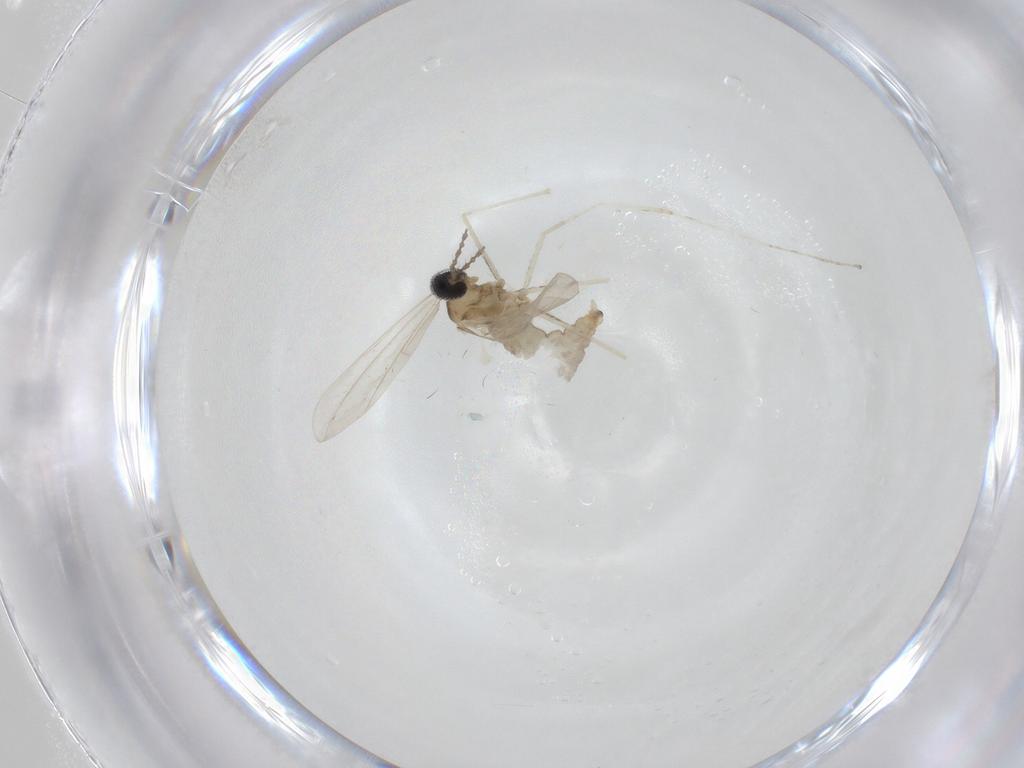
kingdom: Animalia
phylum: Arthropoda
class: Insecta
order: Diptera
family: Cecidomyiidae
